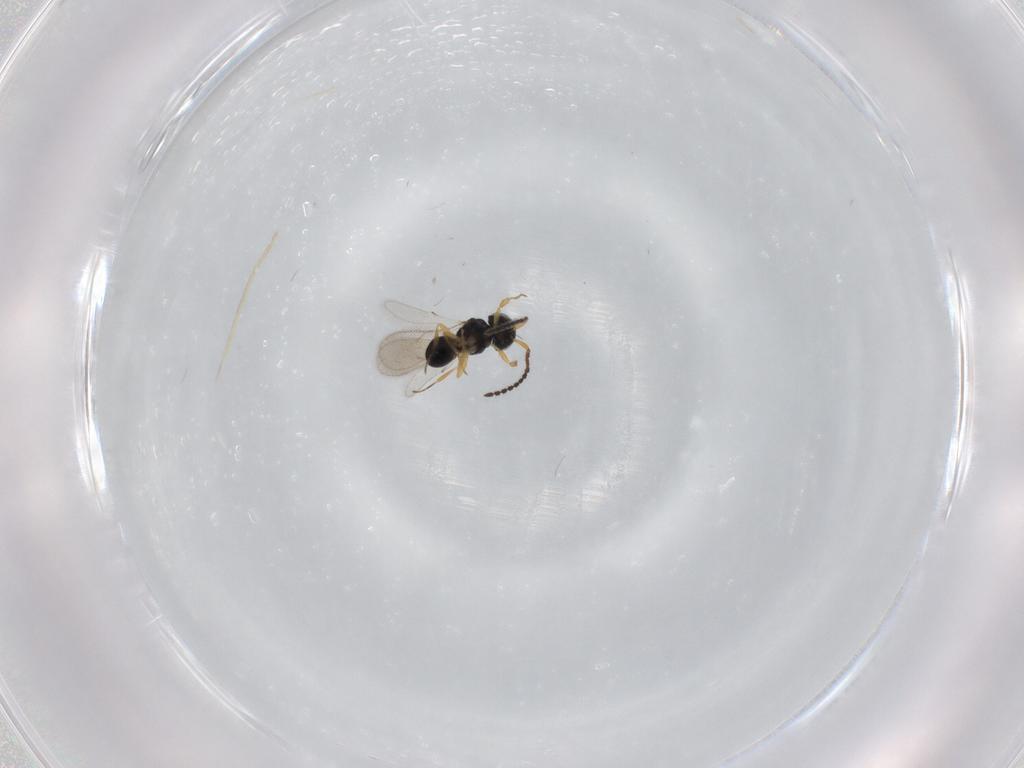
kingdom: Animalia
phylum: Arthropoda
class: Insecta
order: Hymenoptera
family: Scelionidae
